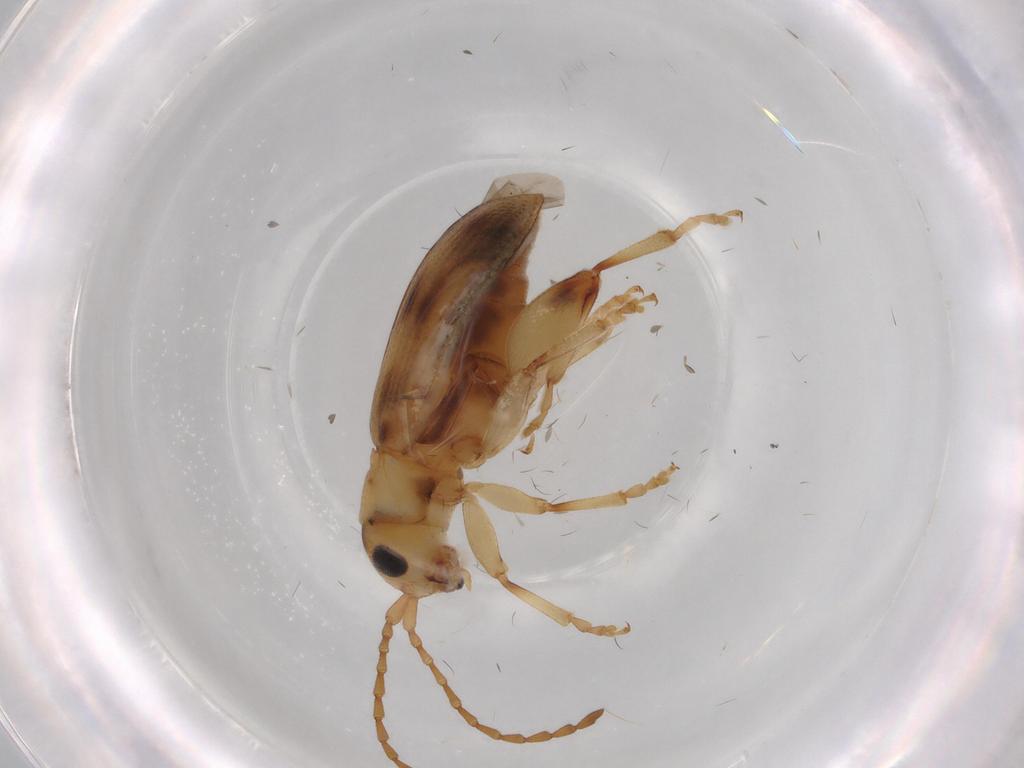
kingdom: Animalia
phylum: Arthropoda
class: Insecta
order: Coleoptera
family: Chrysomelidae
